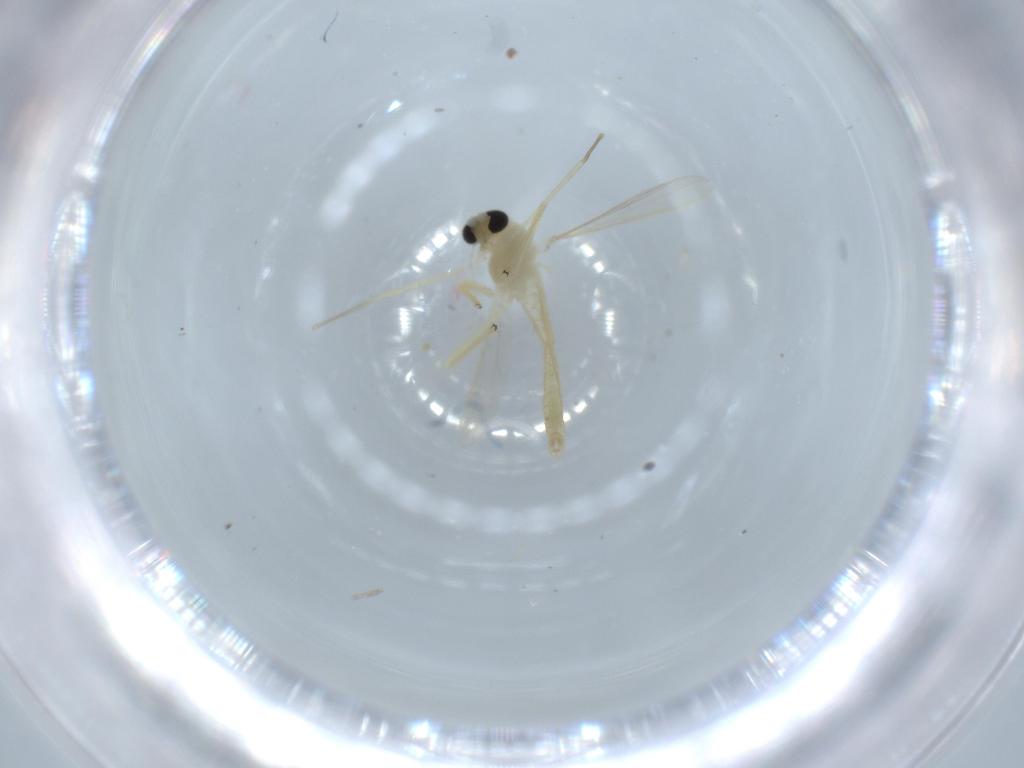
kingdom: Animalia
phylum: Arthropoda
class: Insecta
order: Diptera
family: Chironomidae
